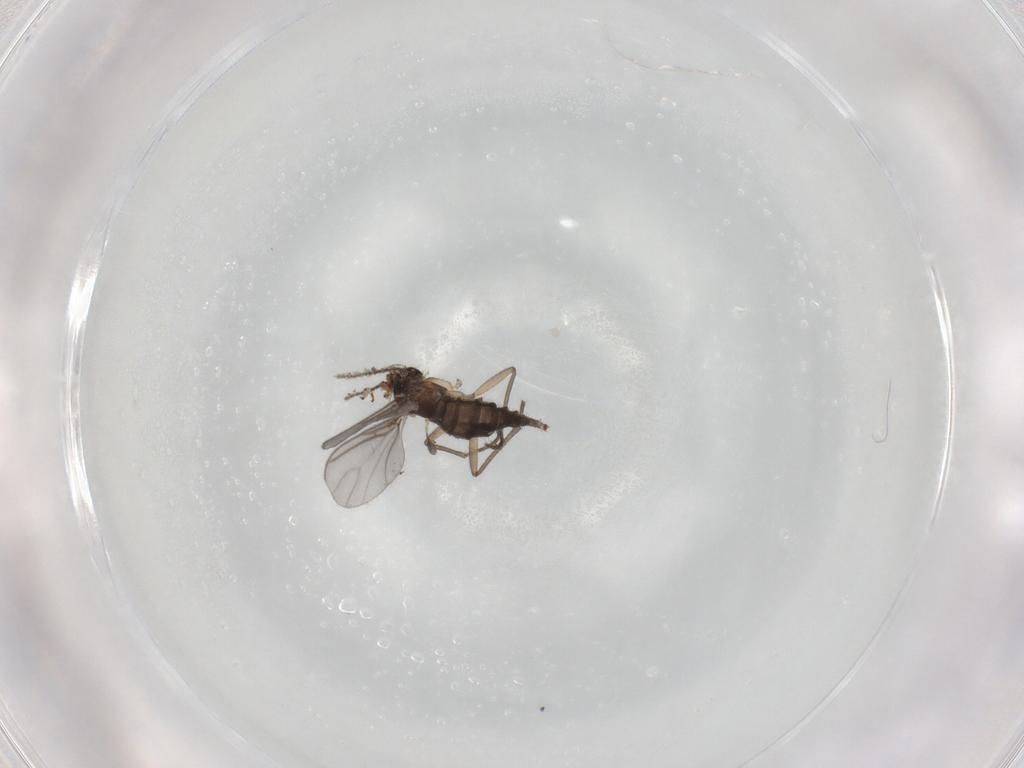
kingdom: Animalia
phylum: Arthropoda
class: Insecta
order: Diptera
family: Sciaridae
